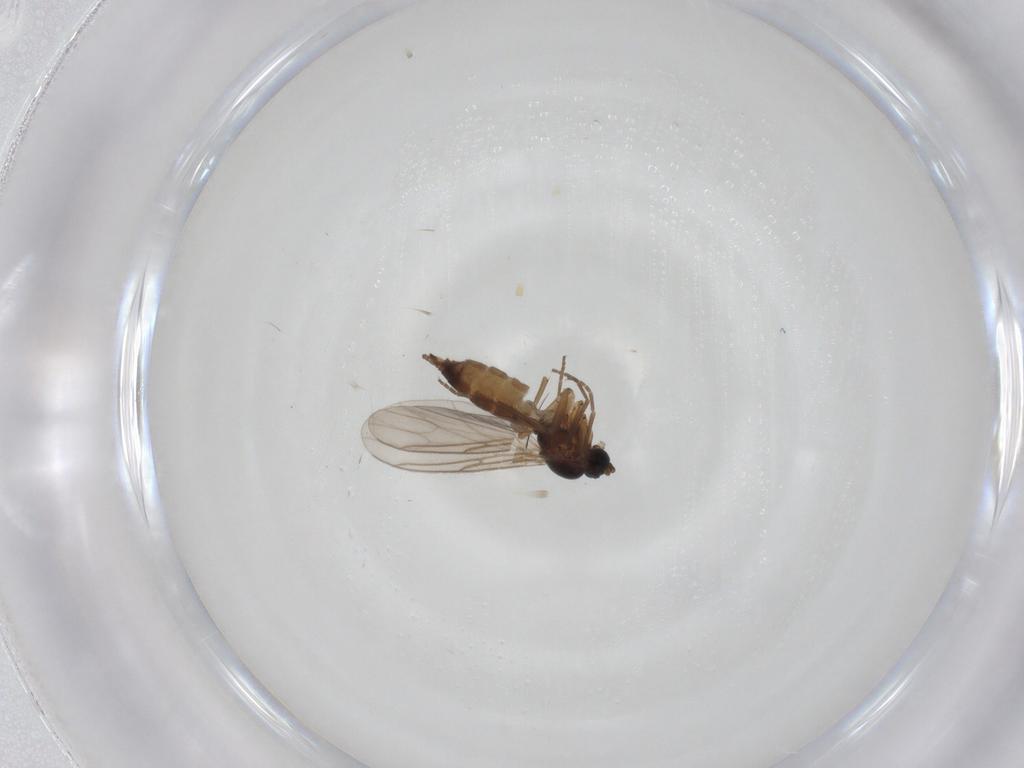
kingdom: Animalia
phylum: Arthropoda
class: Insecta
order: Diptera
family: Sciaridae
